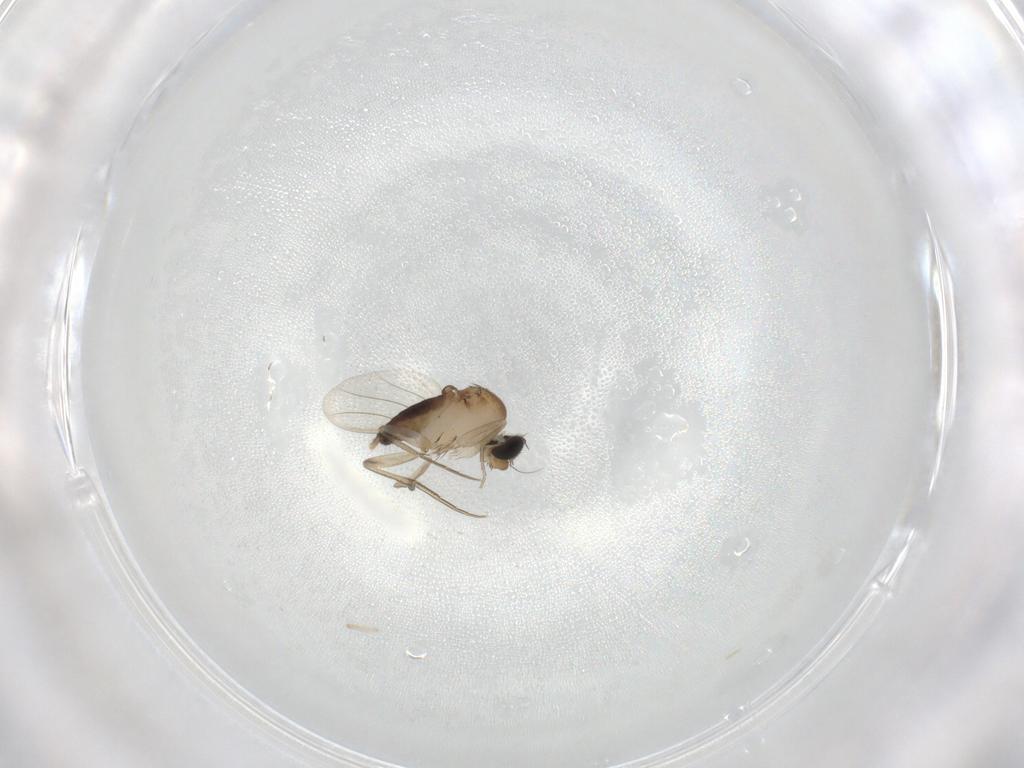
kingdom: Animalia
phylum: Arthropoda
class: Insecta
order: Diptera
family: Phoridae
